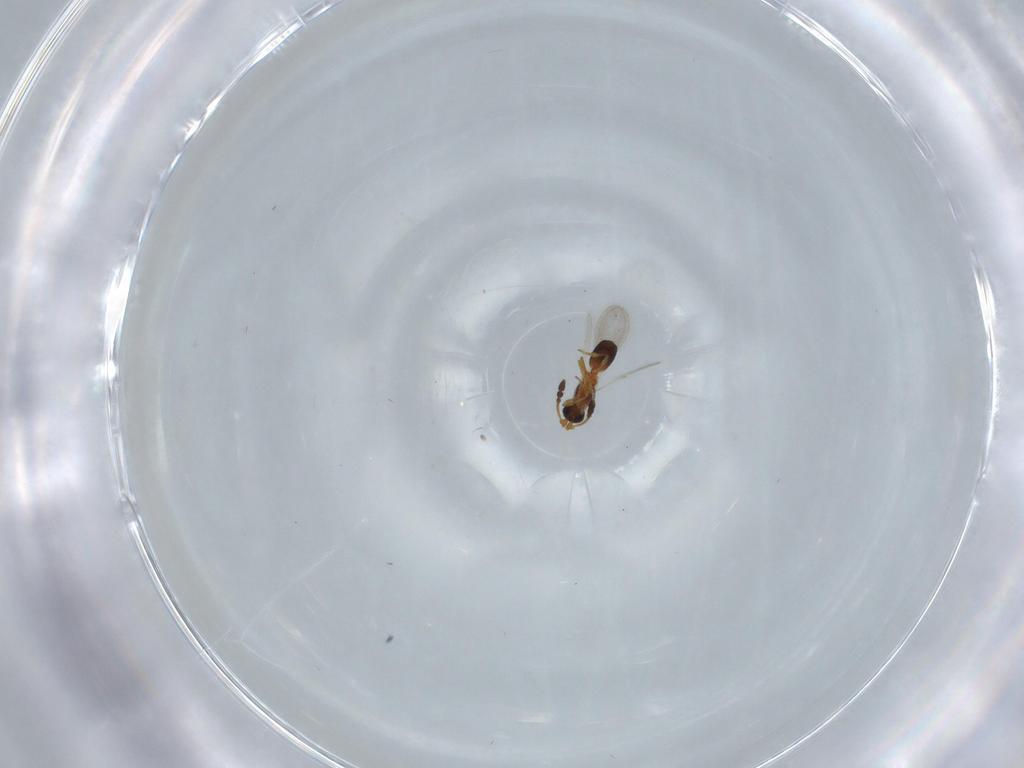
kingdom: Animalia
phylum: Arthropoda
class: Insecta
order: Hymenoptera
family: Diapriidae
